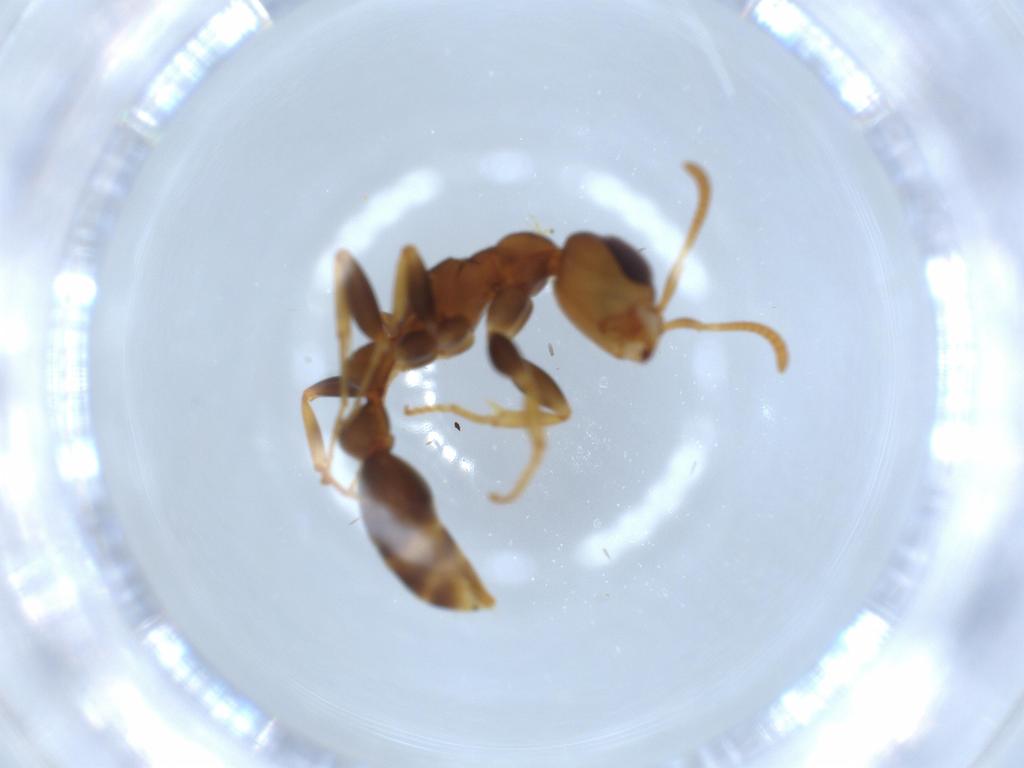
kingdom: Animalia
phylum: Arthropoda
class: Insecta
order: Hymenoptera
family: Formicidae
